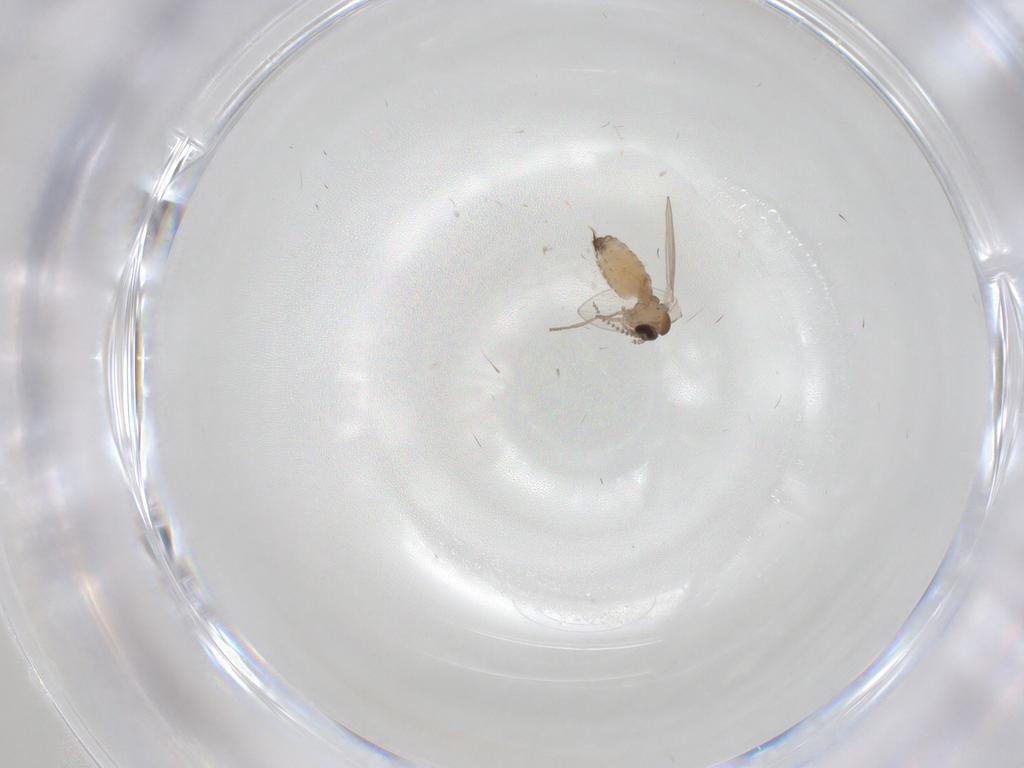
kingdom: Animalia
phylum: Arthropoda
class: Insecta
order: Diptera
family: Psychodidae
